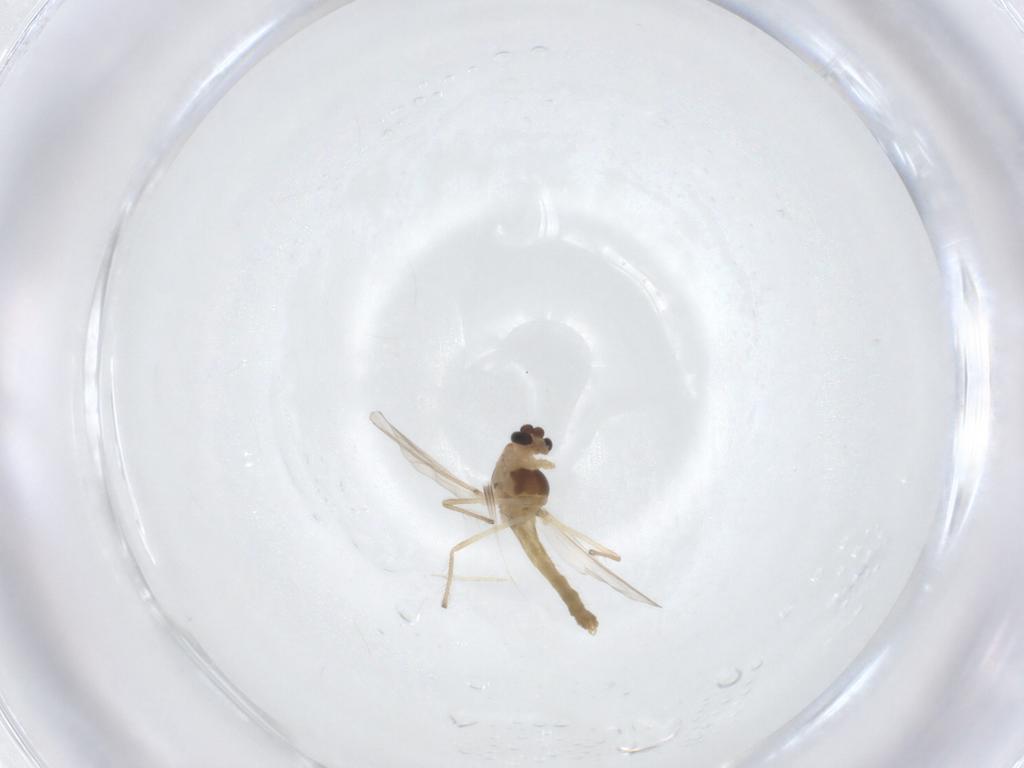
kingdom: Animalia
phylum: Arthropoda
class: Insecta
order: Diptera
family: Chironomidae
